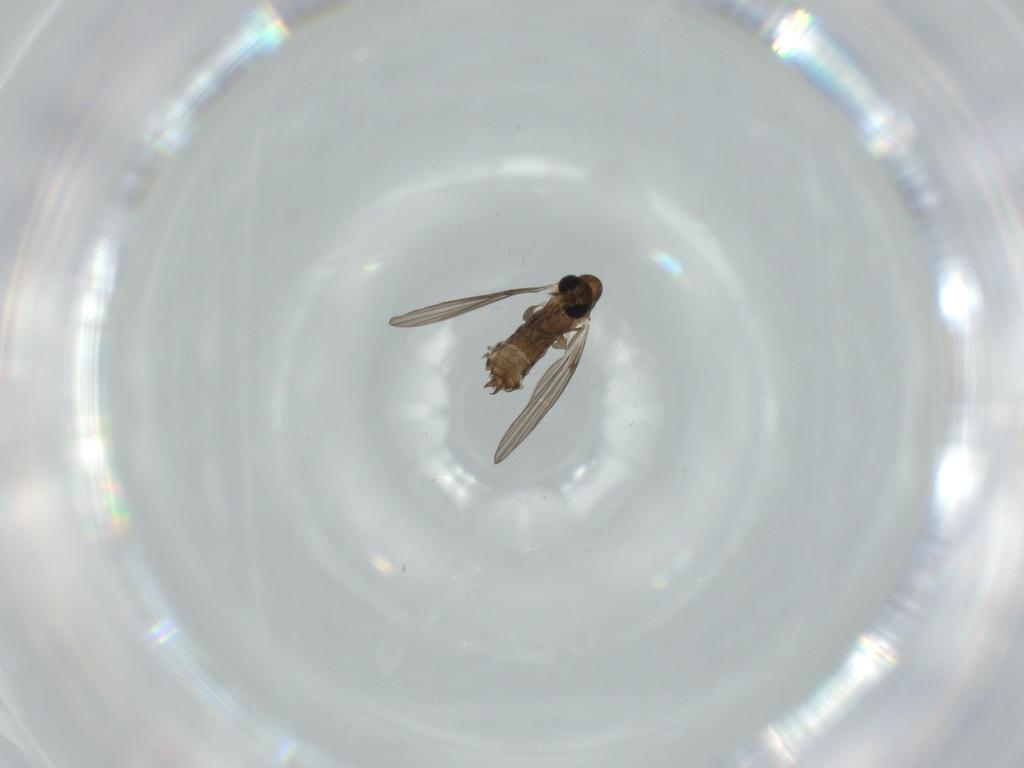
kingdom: Animalia
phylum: Arthropoda
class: Insecta
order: Diptera
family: Psychodidae
